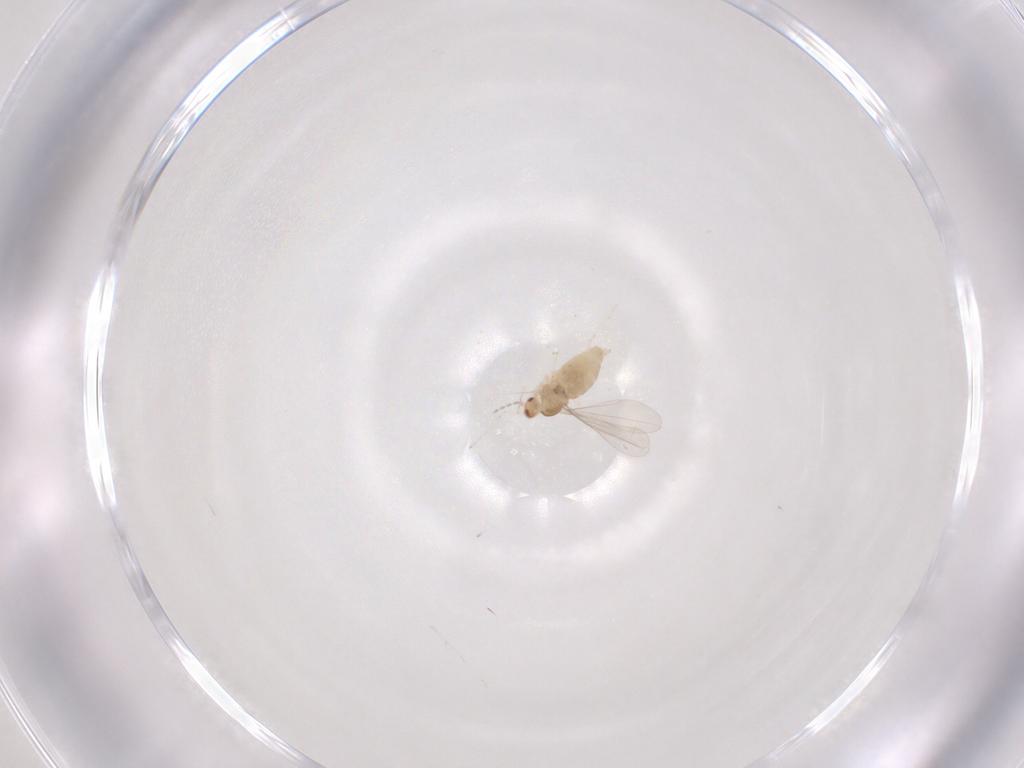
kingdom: Animalia
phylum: Arthropoda
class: Insecta
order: Diptera
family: Cecidomyiidae
